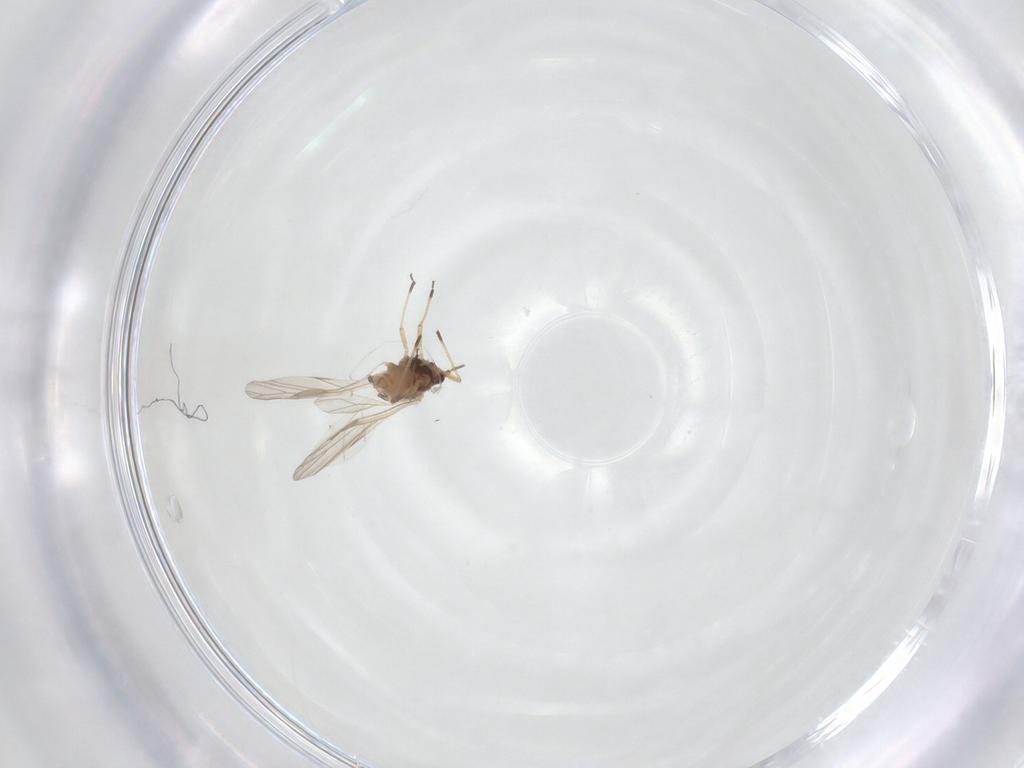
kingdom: Animalia
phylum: Arthropoda
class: Insecta
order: Hemiptera
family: Aphididae
